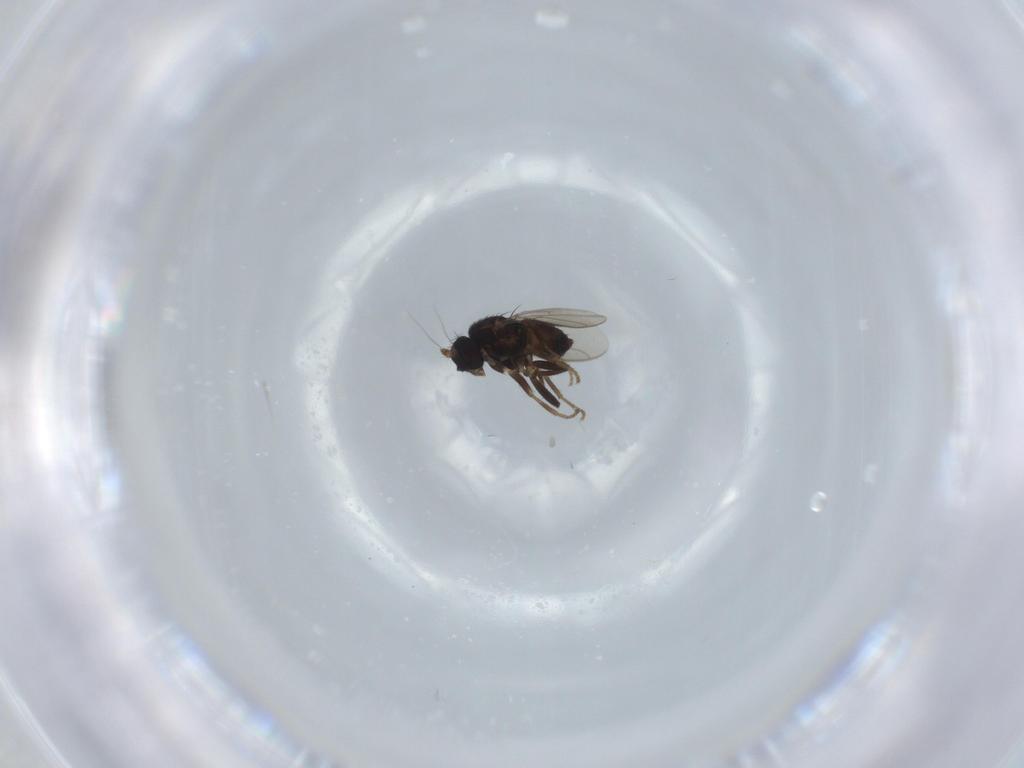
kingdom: Animalia
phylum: Arthropoda
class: Insecta
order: Diptera
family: Sphaeroceridae
